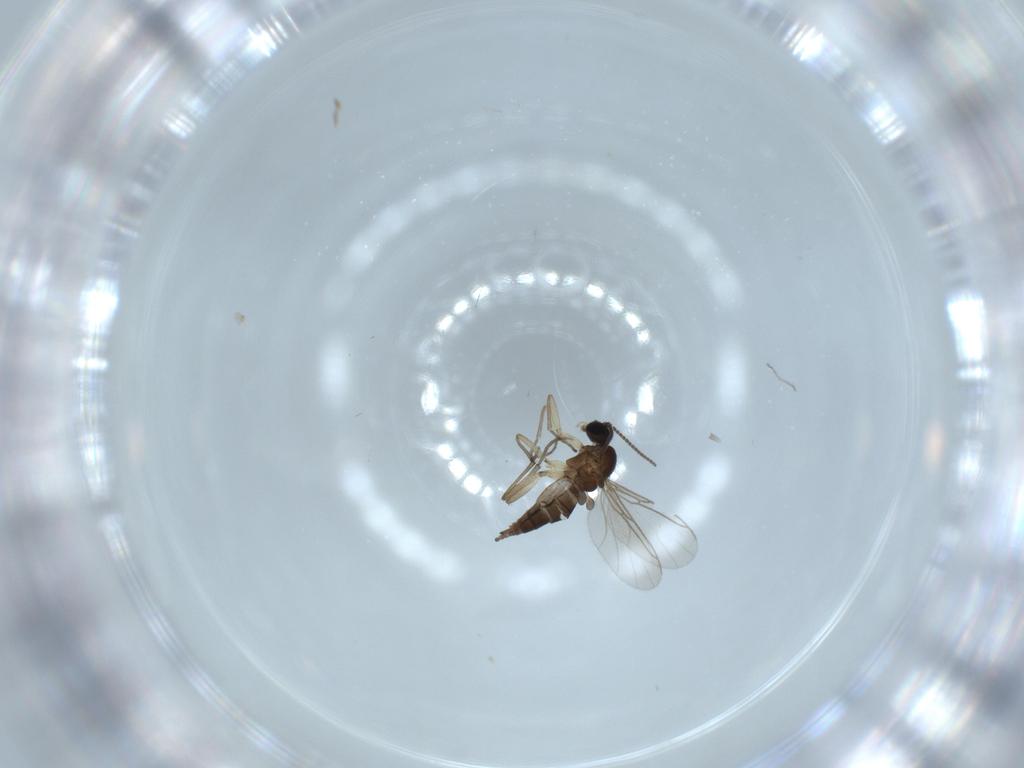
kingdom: Animalia
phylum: Arthropoda
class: Insecta
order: Diptera
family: Sciaridae
